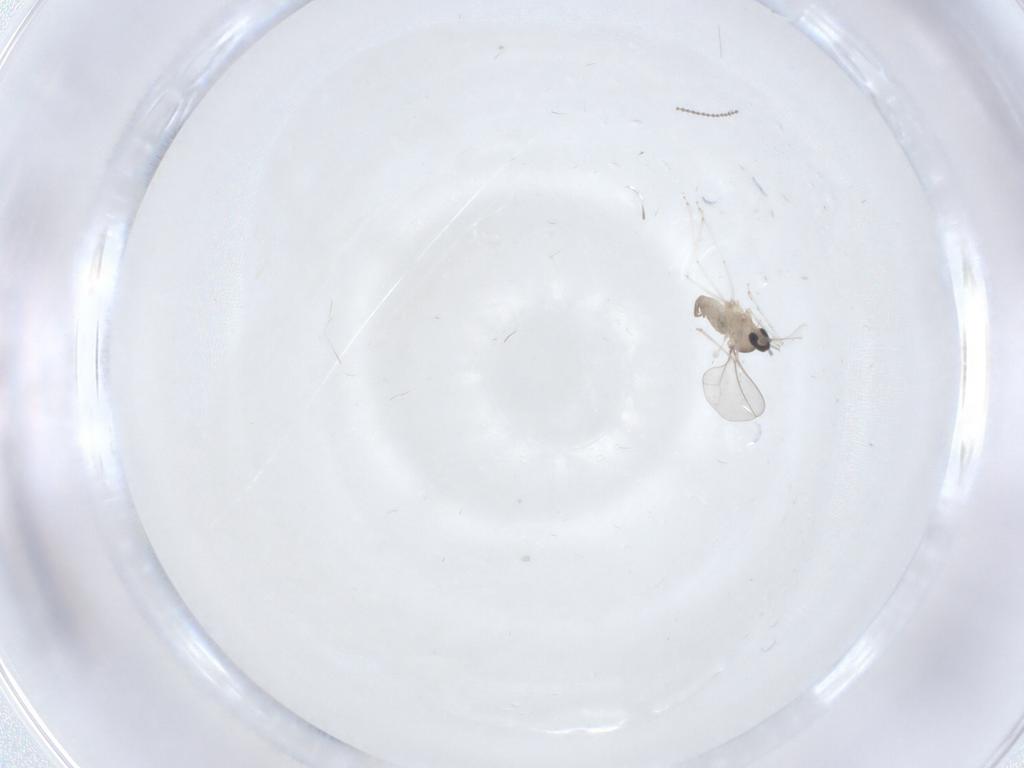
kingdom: Animalia
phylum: Arthropoda
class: Insecta
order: Diptera
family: Cecidomyiidae
